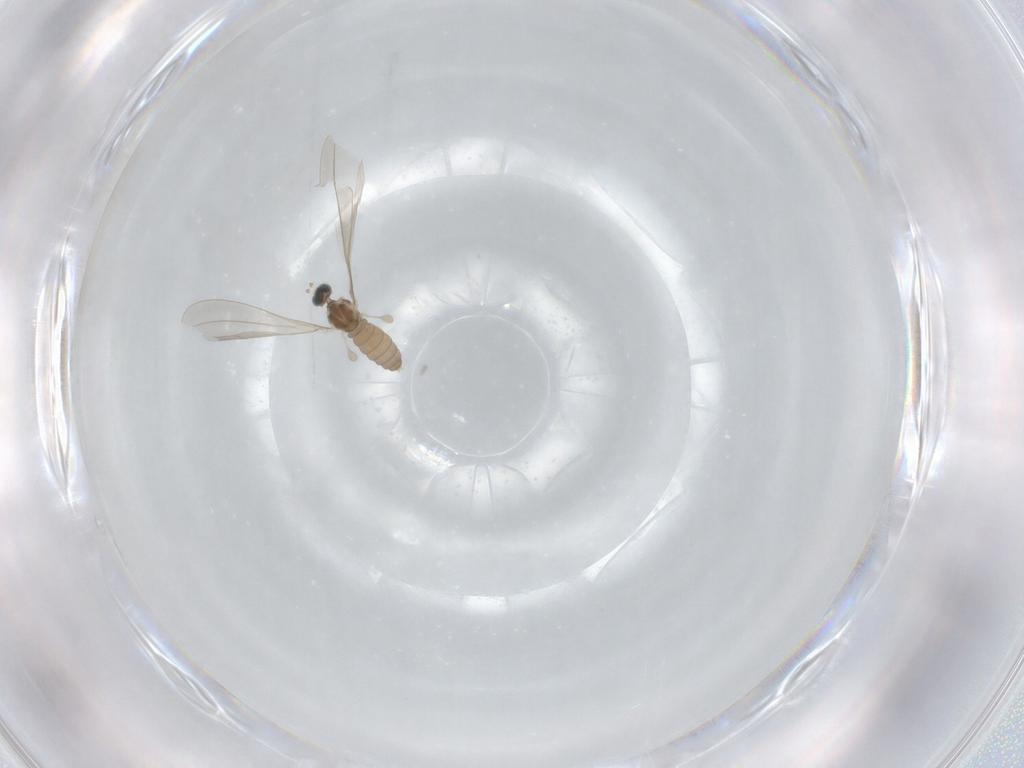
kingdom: Animalia
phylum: Arthropoda
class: Insecta
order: Diptera
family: Cecidomyiidae
